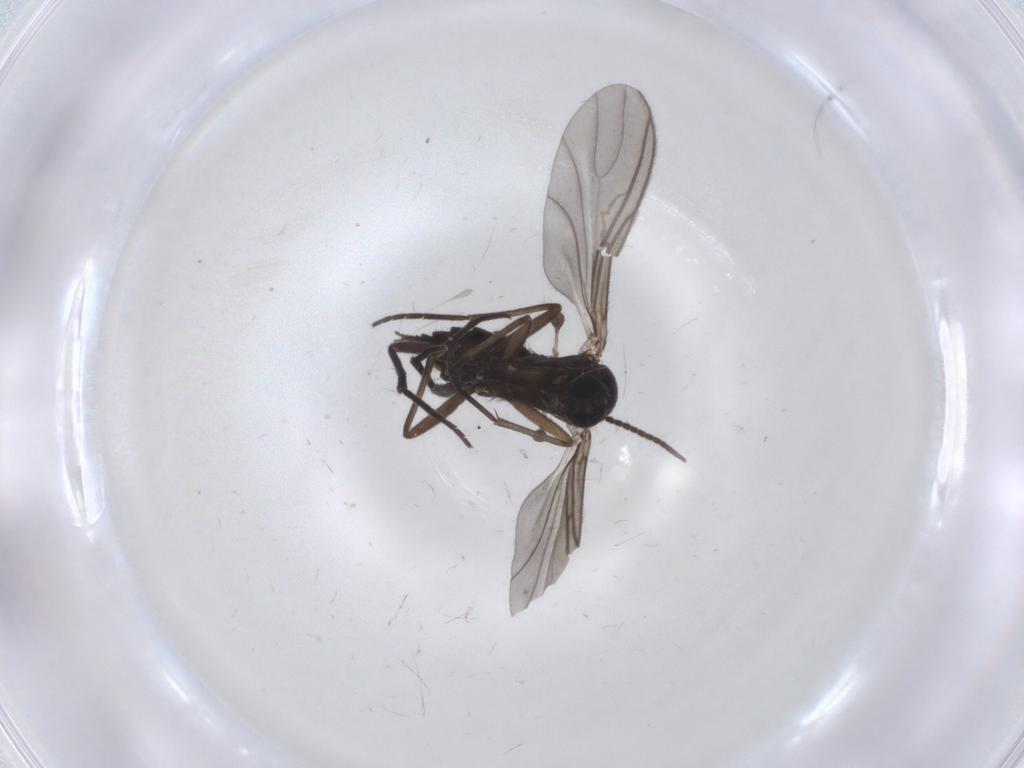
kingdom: Animalia
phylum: Arthropoda
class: Insecta
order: Diptera
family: Sciaridae
